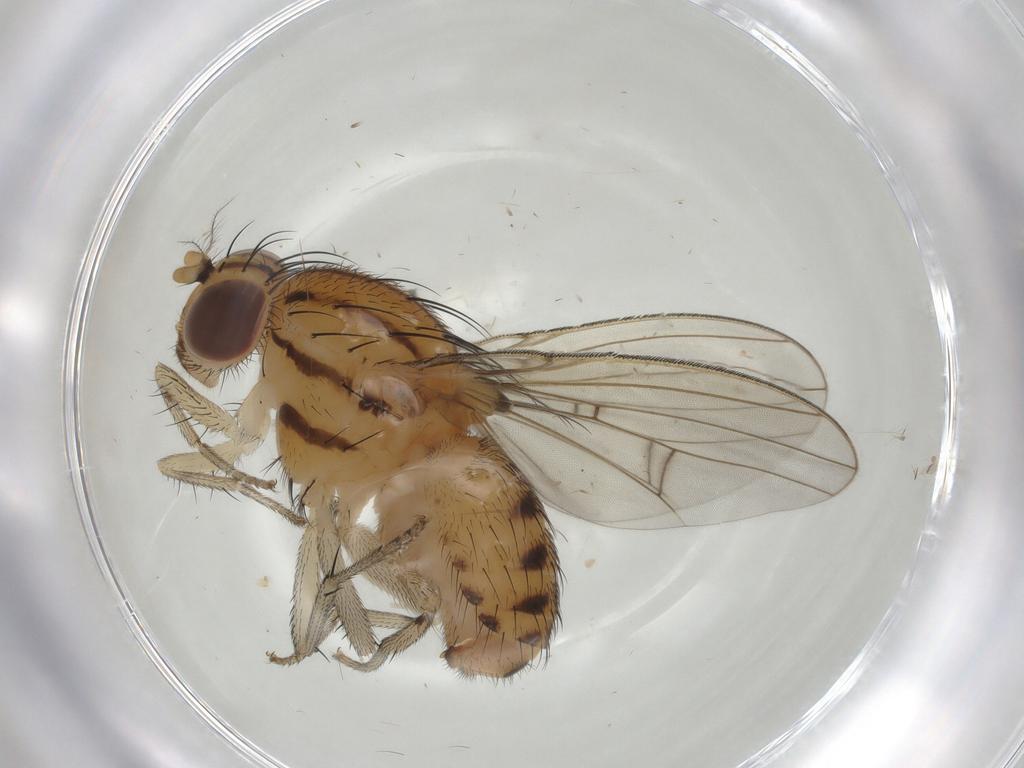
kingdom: Animalia
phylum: Arthropoda
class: Insecta
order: Diptera
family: Lauxaniidae
